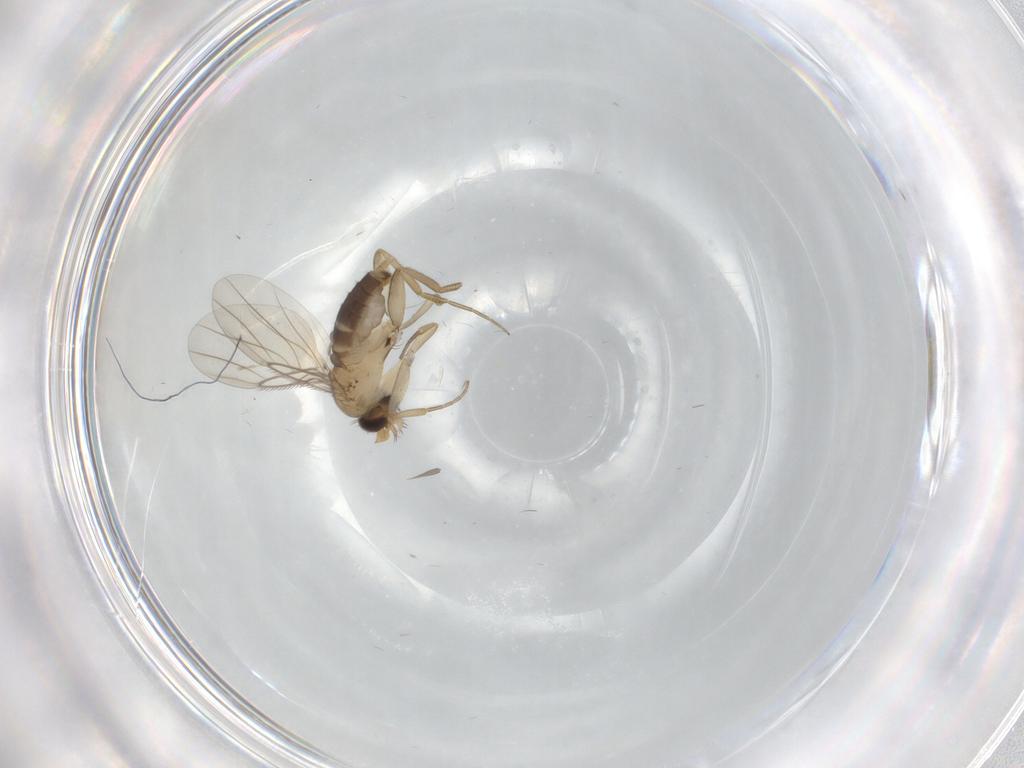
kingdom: Animalia
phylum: Arthropoda
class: Insecta
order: Diptera
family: Phoridae
